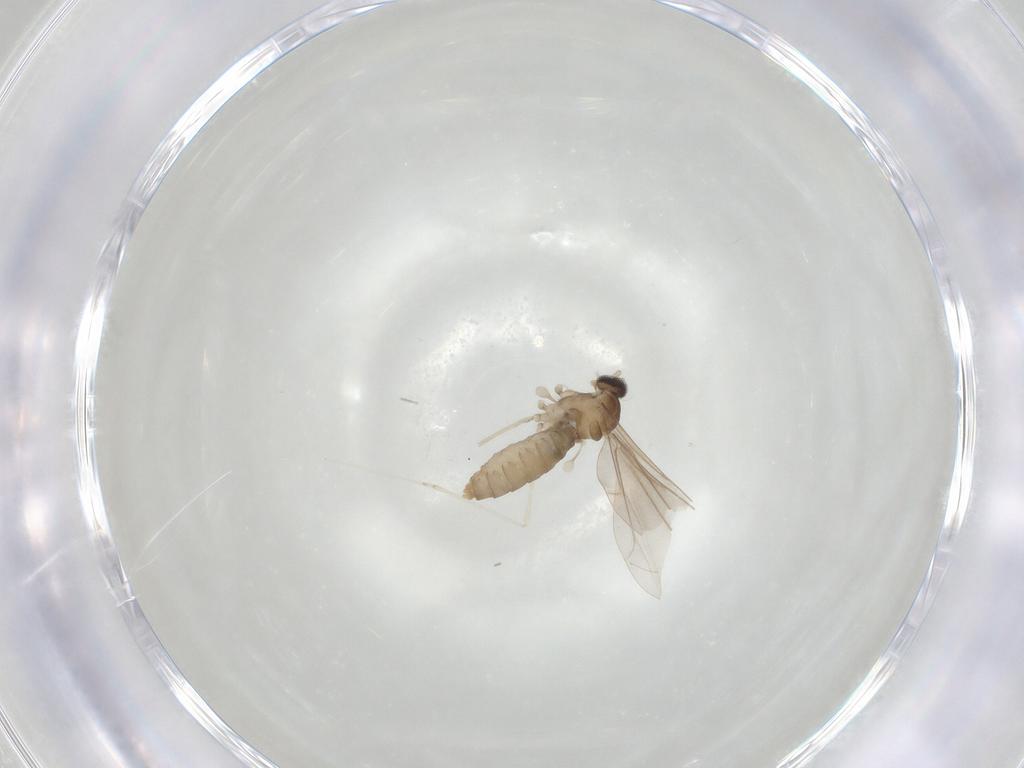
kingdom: Animalia
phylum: Arthropoda
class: Insecta
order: Diptera
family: Cecidomyiidae
